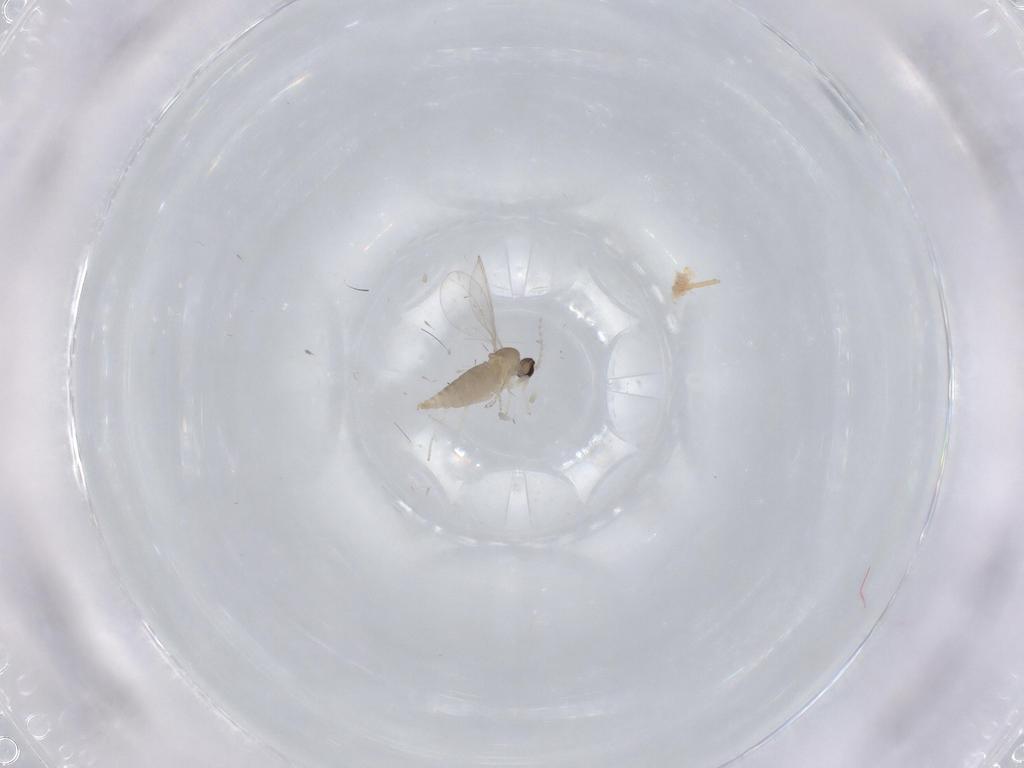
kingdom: Animalia
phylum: Arthropoda
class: Insecta
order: Diptera
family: Cecidomyiidae
